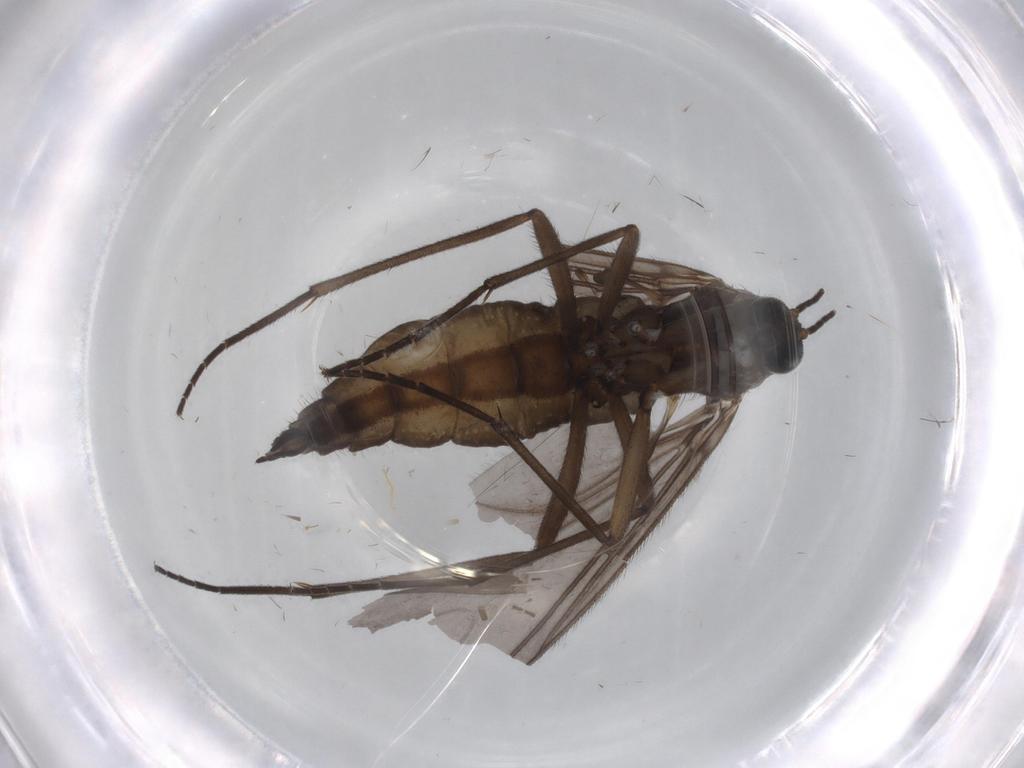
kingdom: Animalia
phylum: Arthropoda
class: Insecta
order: Diptera
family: Sciaridae
